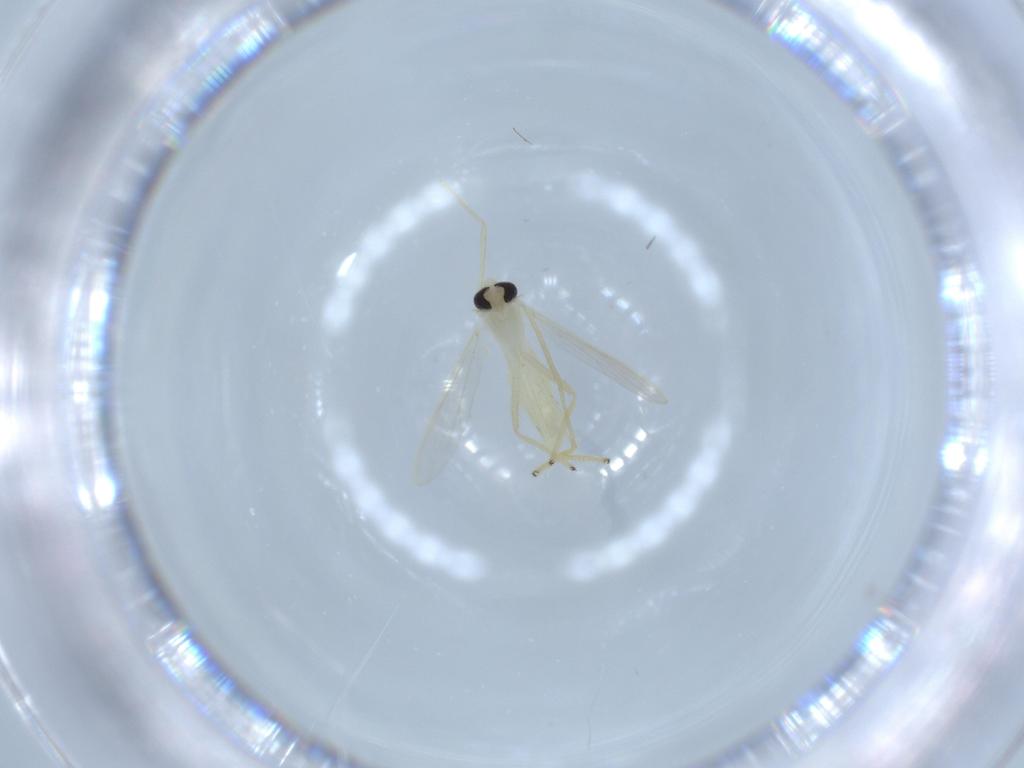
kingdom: Animalia
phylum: Arthropoda
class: Insecta
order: Diptera
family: Chironomidae
